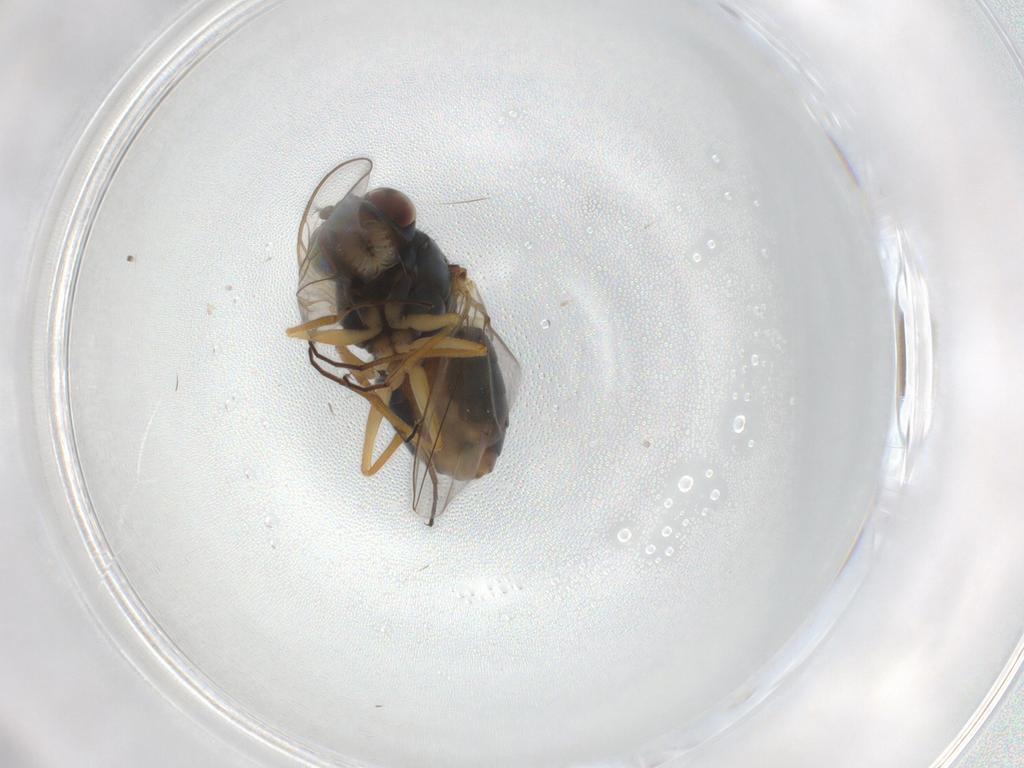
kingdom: Animalia
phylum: Arthropoda
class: Insecta
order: Diptera
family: Ephydridae
